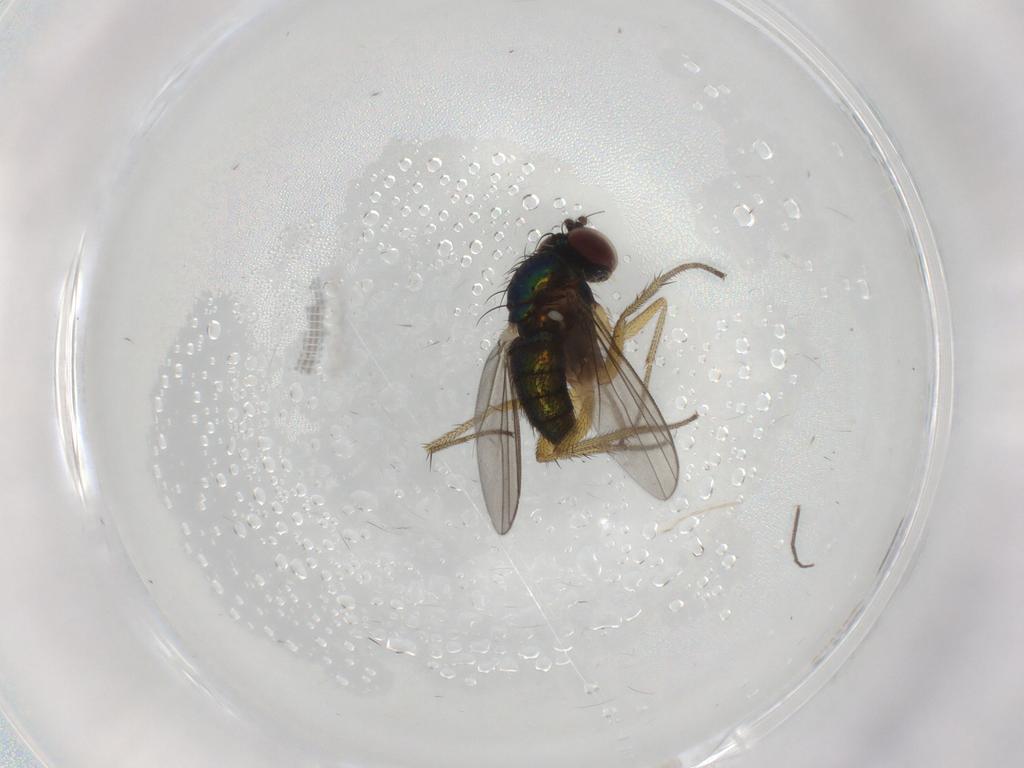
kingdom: Animalia
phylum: Arthropoda
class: Insecta
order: Diptera
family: Sciaridae
